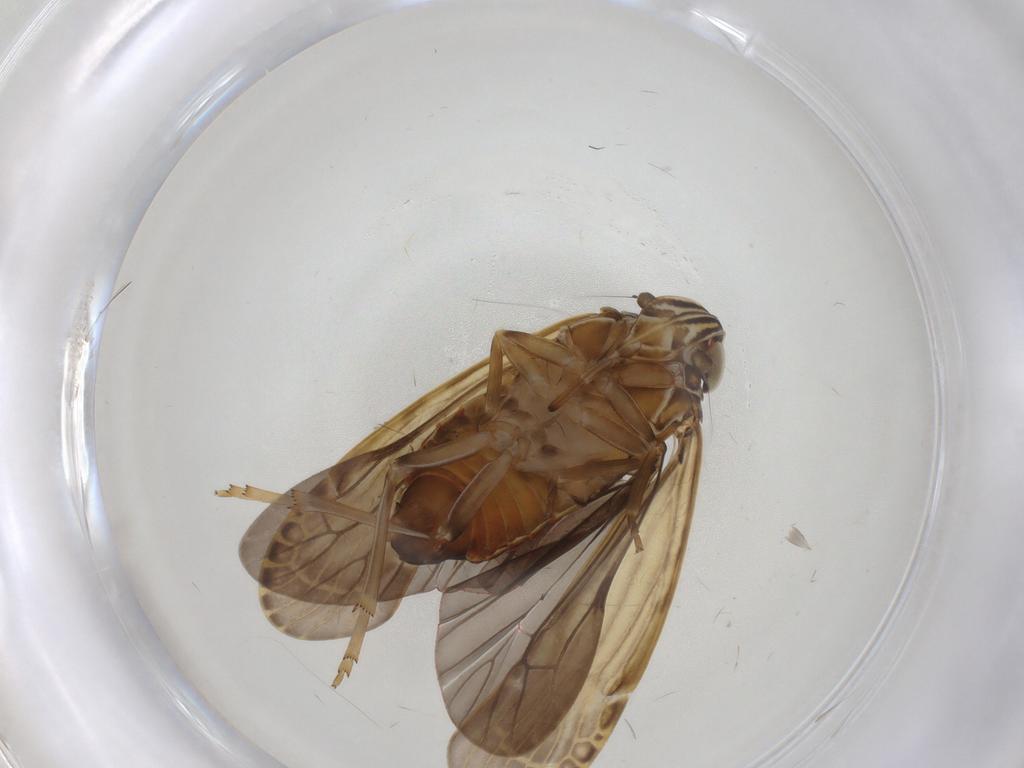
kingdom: Animalia
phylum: Arthropoda
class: Insecta
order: Hemiptera
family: Achilidae
